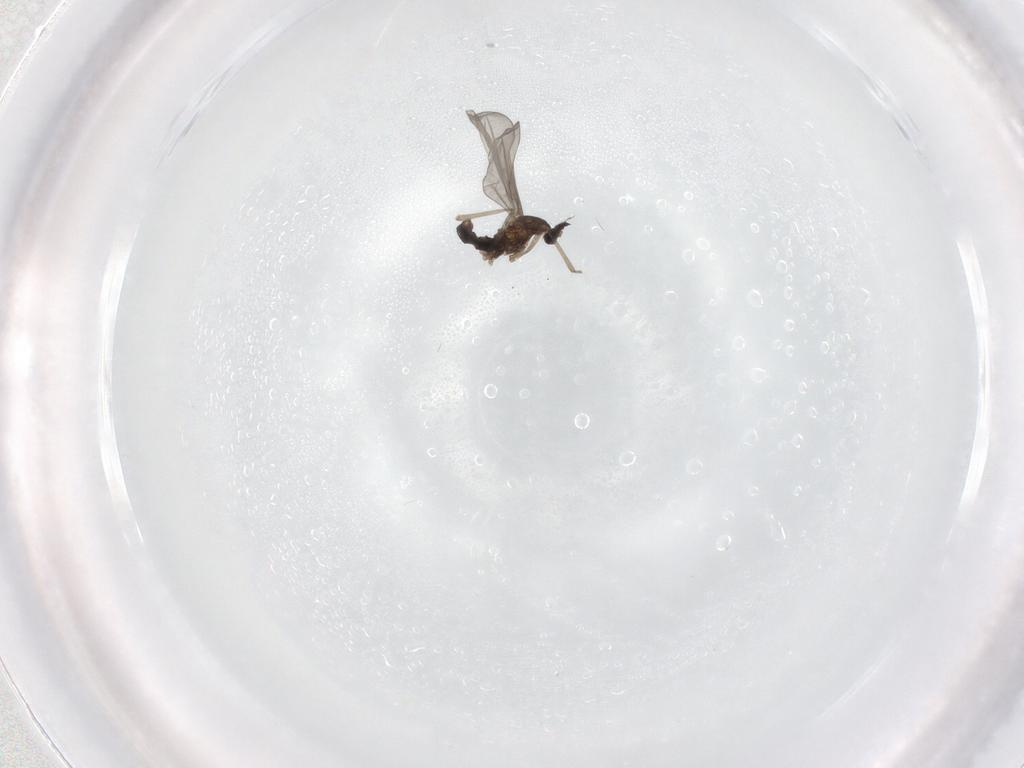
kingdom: Animalia
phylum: Arthropoda
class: Insecta
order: Diptera
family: Cecidomyiidae
